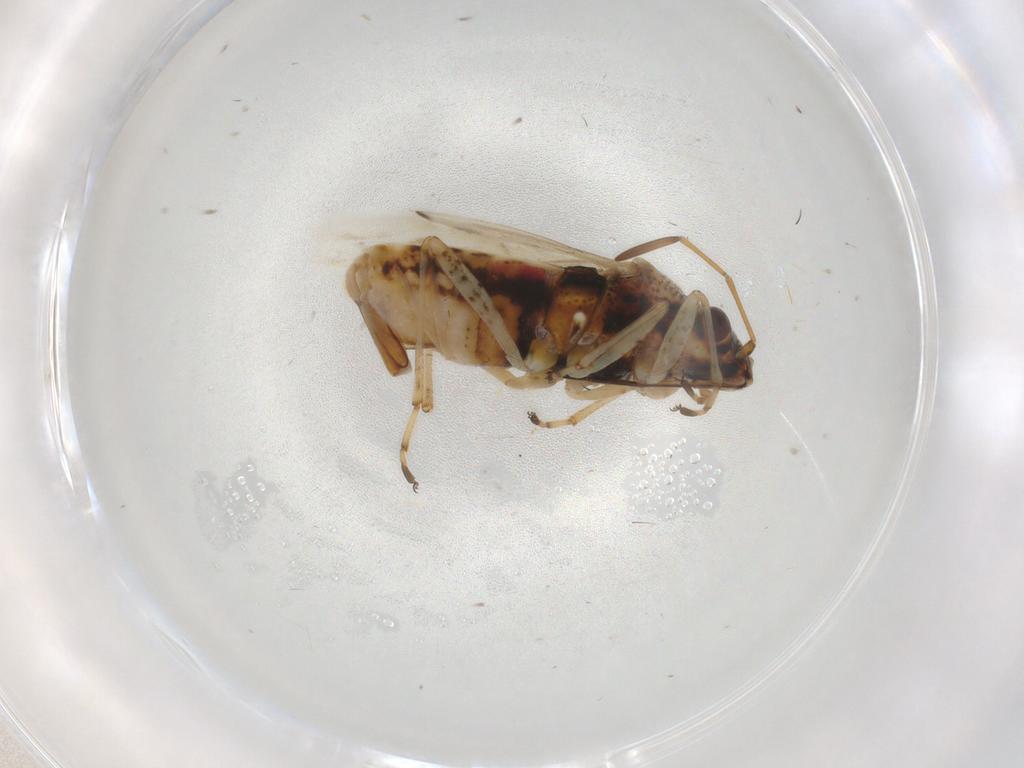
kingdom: Animalia
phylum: Arthropoda
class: Insecta
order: Hemiptera
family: Lygaeidae
